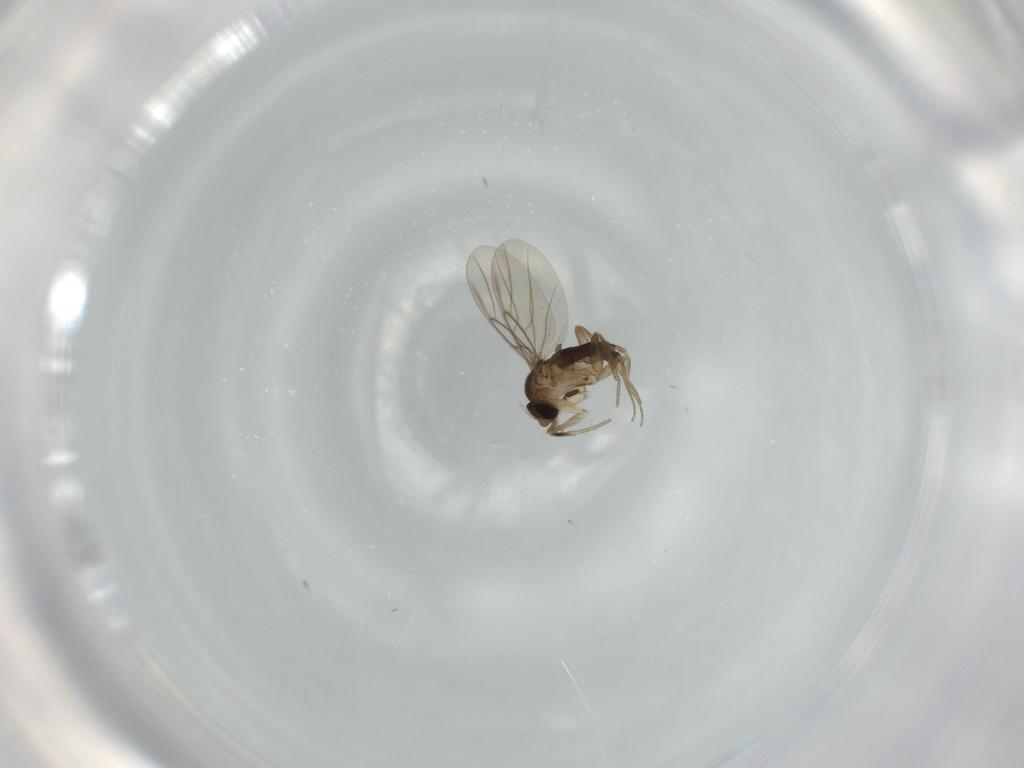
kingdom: Animalia
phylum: Arthropoda
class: Insecta
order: Diptera
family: Phoridae
